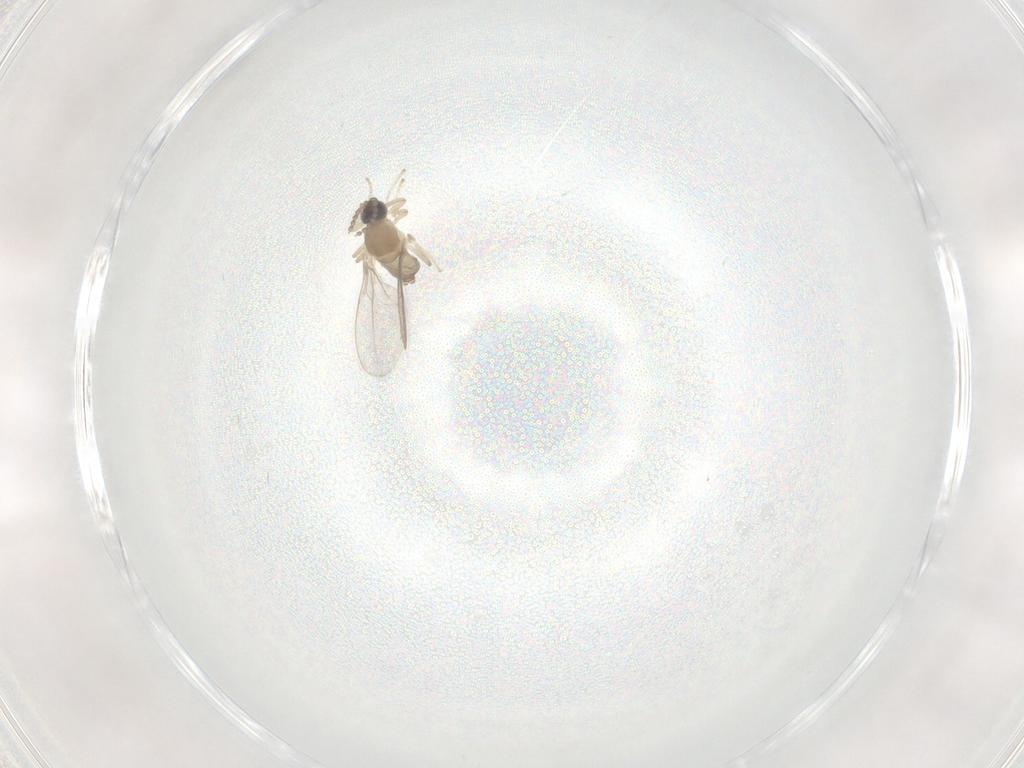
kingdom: Animalia
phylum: Arthropoda
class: Insecta
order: Diptera
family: Cecidomyiidae
